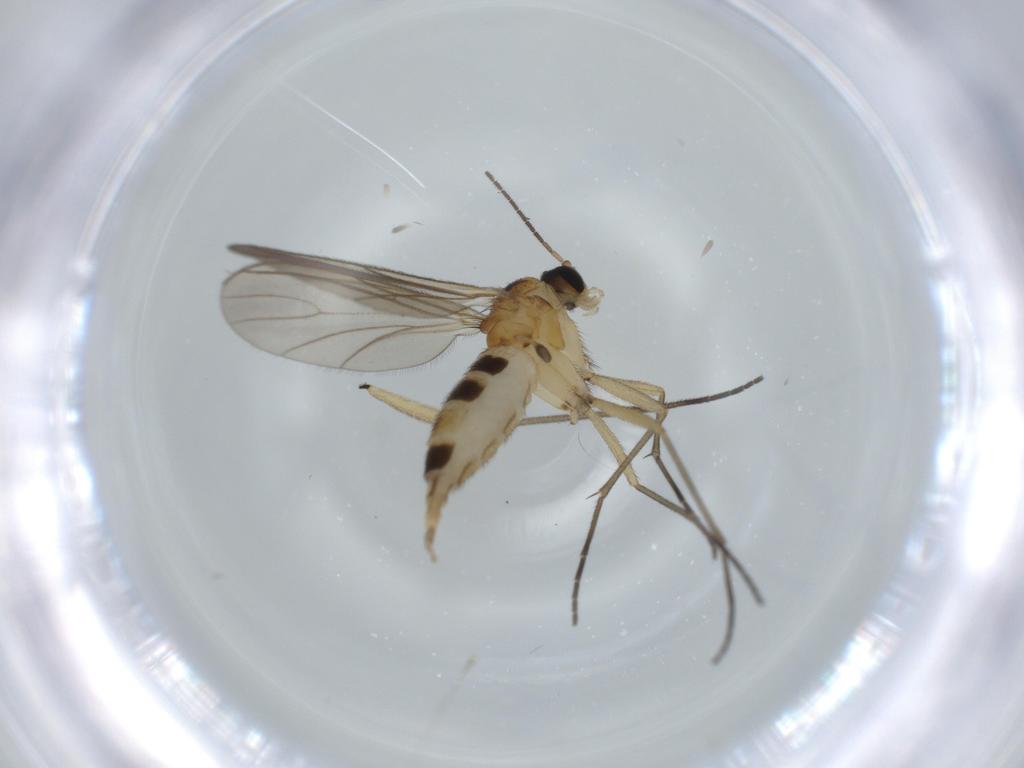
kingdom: Animalia
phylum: Arthropoda
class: Insecta
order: Diptera
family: Sciaridae
